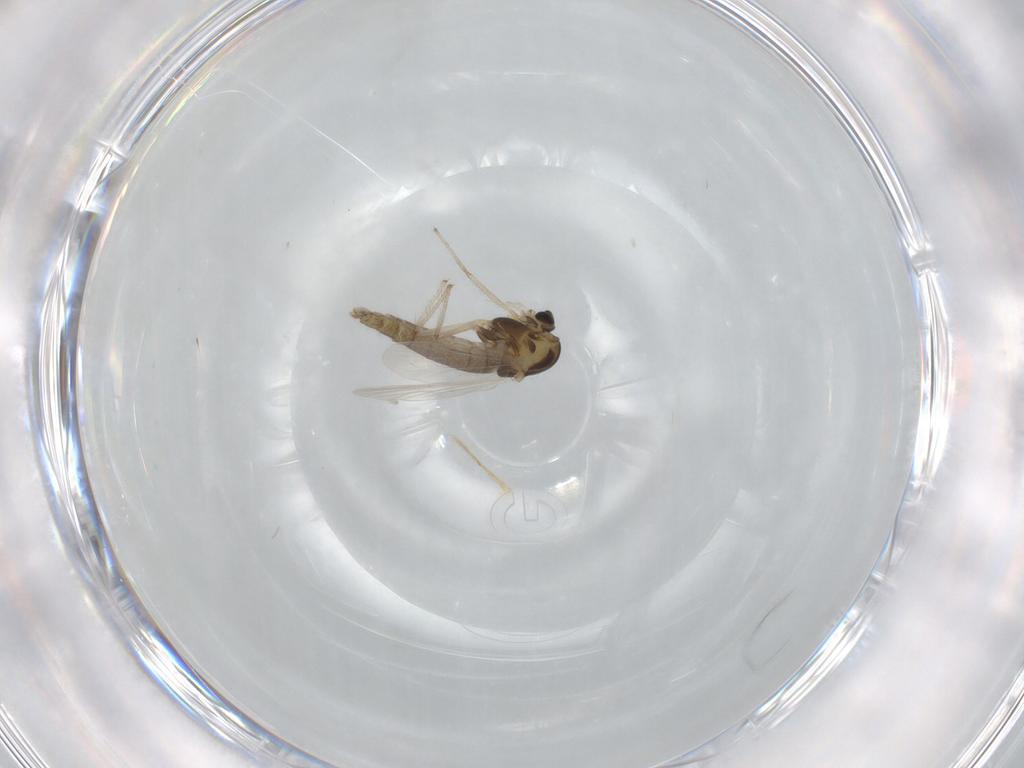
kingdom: Animalia
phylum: Arthropoda
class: Insecta
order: Diptera
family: Chironomidae
